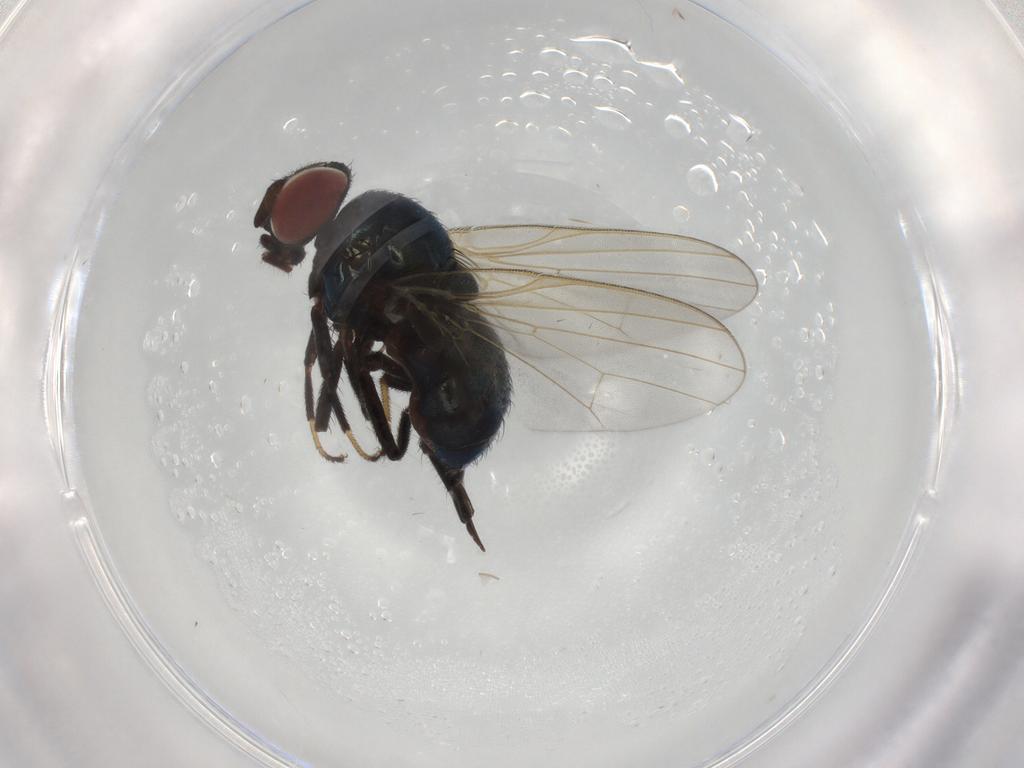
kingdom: Animalia
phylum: Arthropoda
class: Insecta
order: Diptera
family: Lonchaeidae
